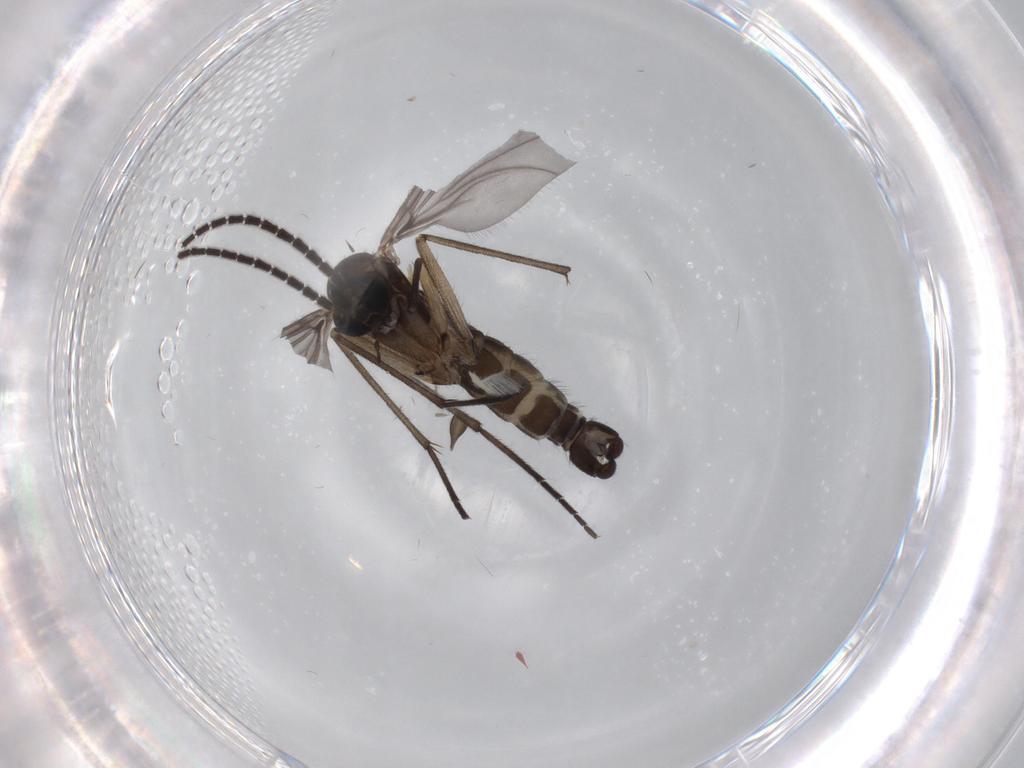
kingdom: Animalia
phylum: Arthropoda
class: Insecta
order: Diptera
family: Sciaridae
